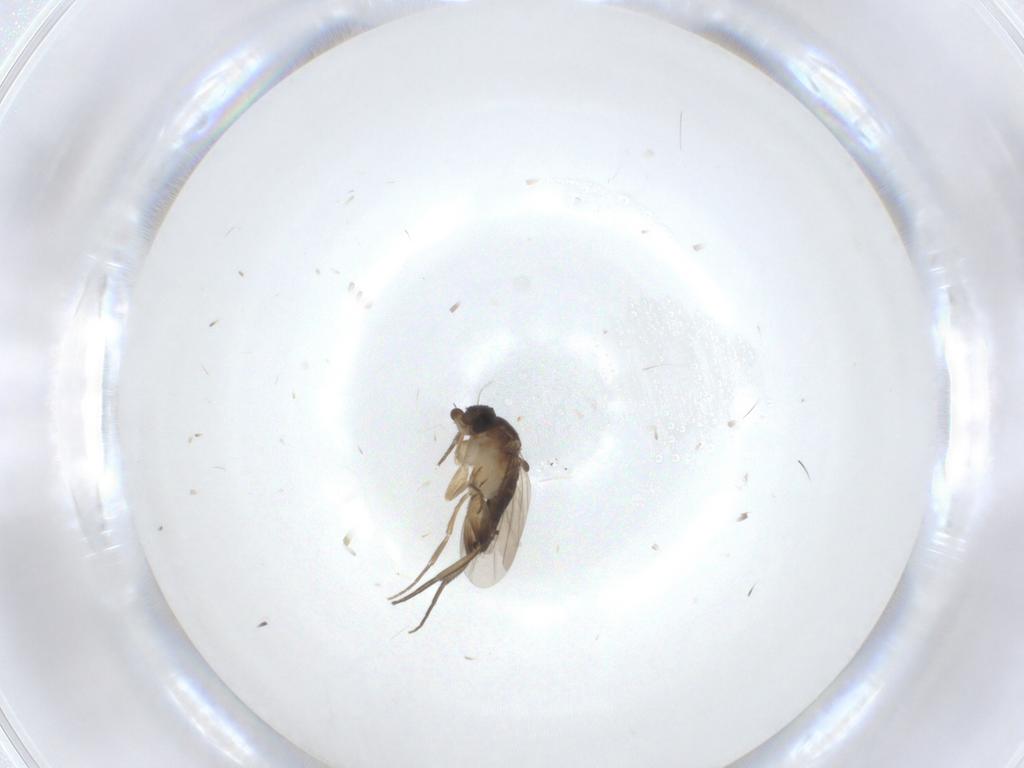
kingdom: Animalia
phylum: Arthropoda
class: Insecta
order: Diptera
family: Phoridae
